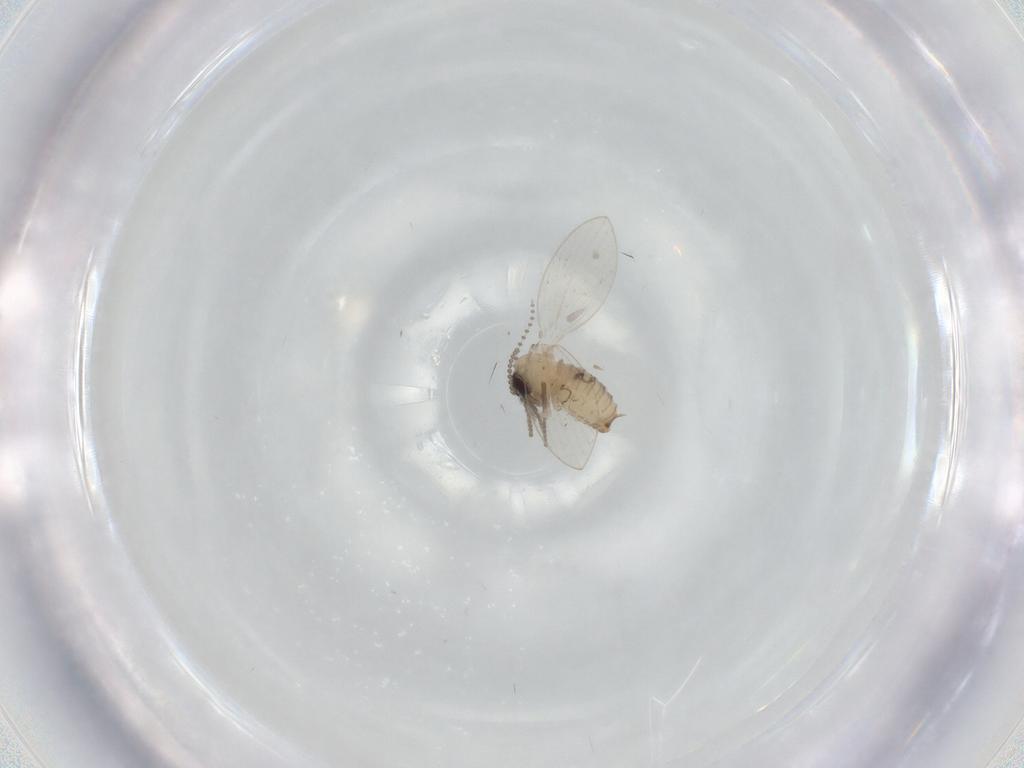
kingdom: Animalia
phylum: Arthropoda
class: Insecta
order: Diptera
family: Psychodidae
